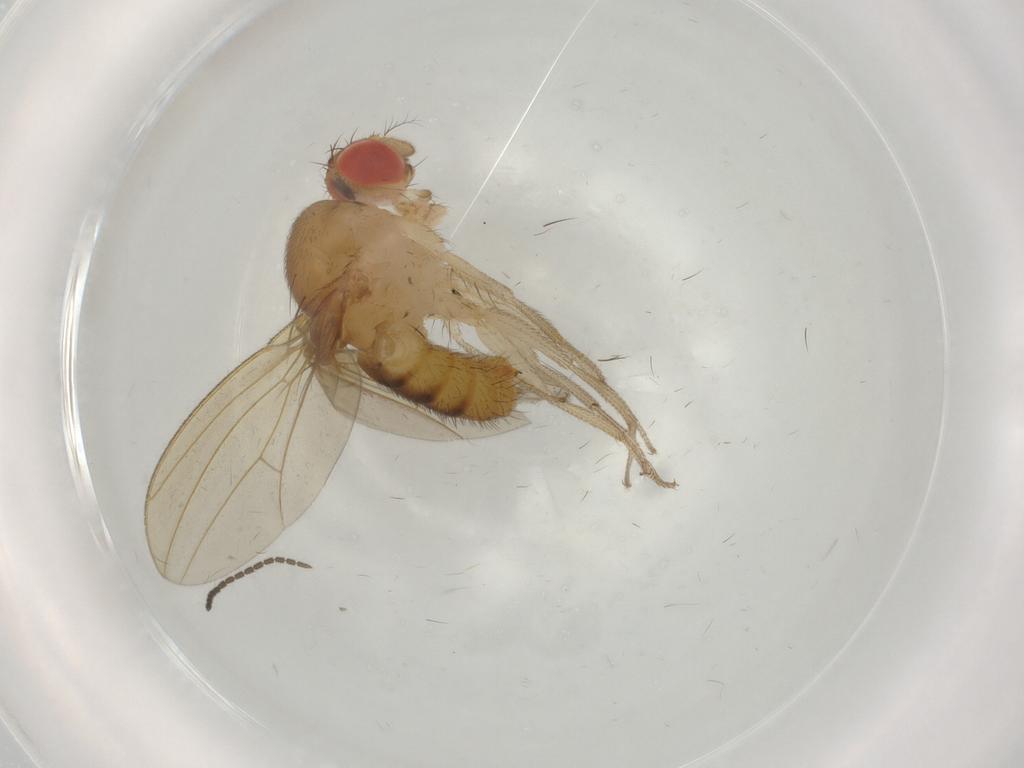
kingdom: Animalia
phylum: Arthropoda
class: Insecta
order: Diptera
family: Drosophilidae
